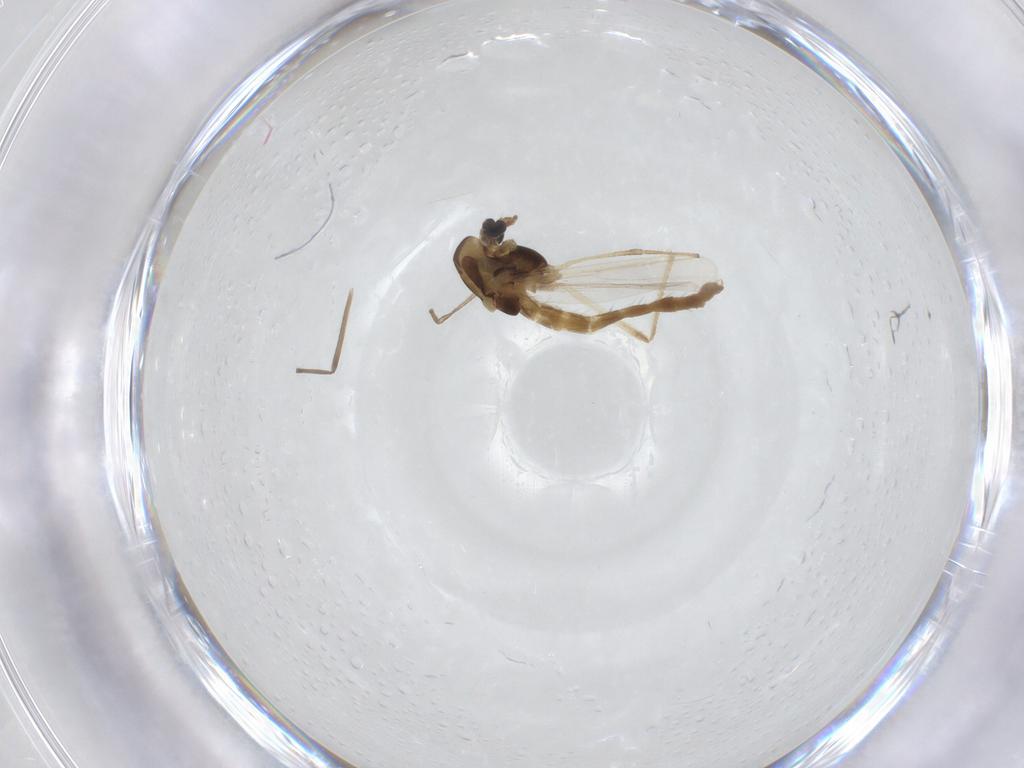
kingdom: Animalia
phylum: Arthropoda
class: Insecta
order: Diptera
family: Chironomidae
